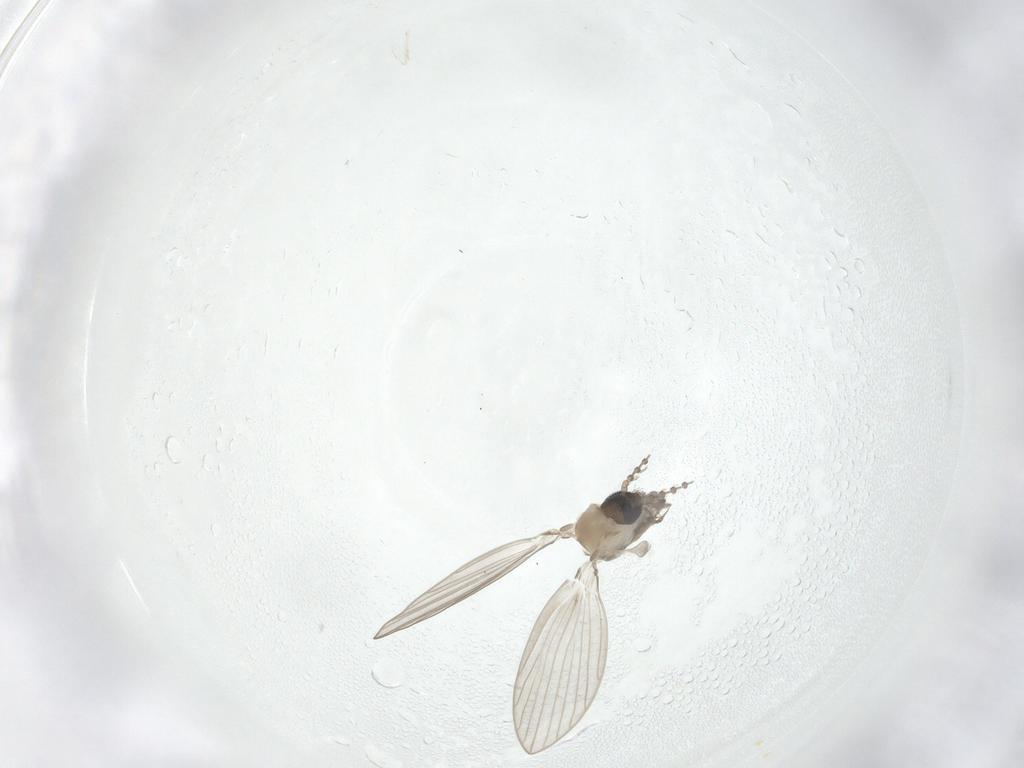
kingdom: Animalia
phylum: Arthropoda
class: Insecta
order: Diptera
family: Psychodidae
